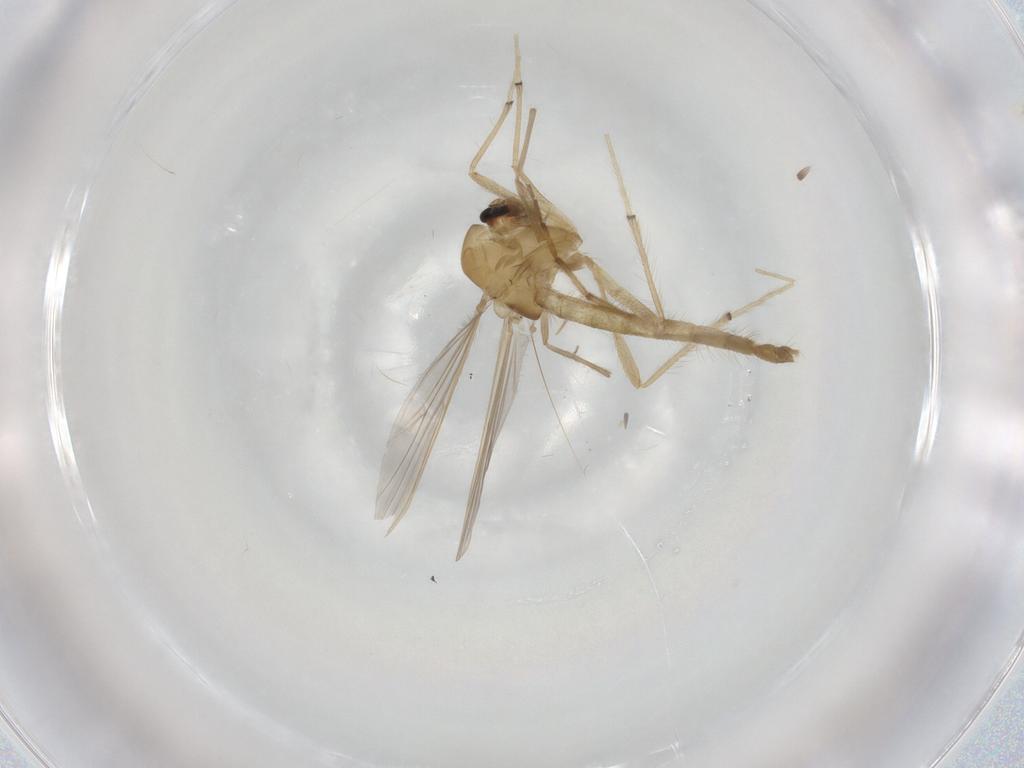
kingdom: Animalia
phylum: Arthropoda
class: Insecta
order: Diptera
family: Chironomidae
